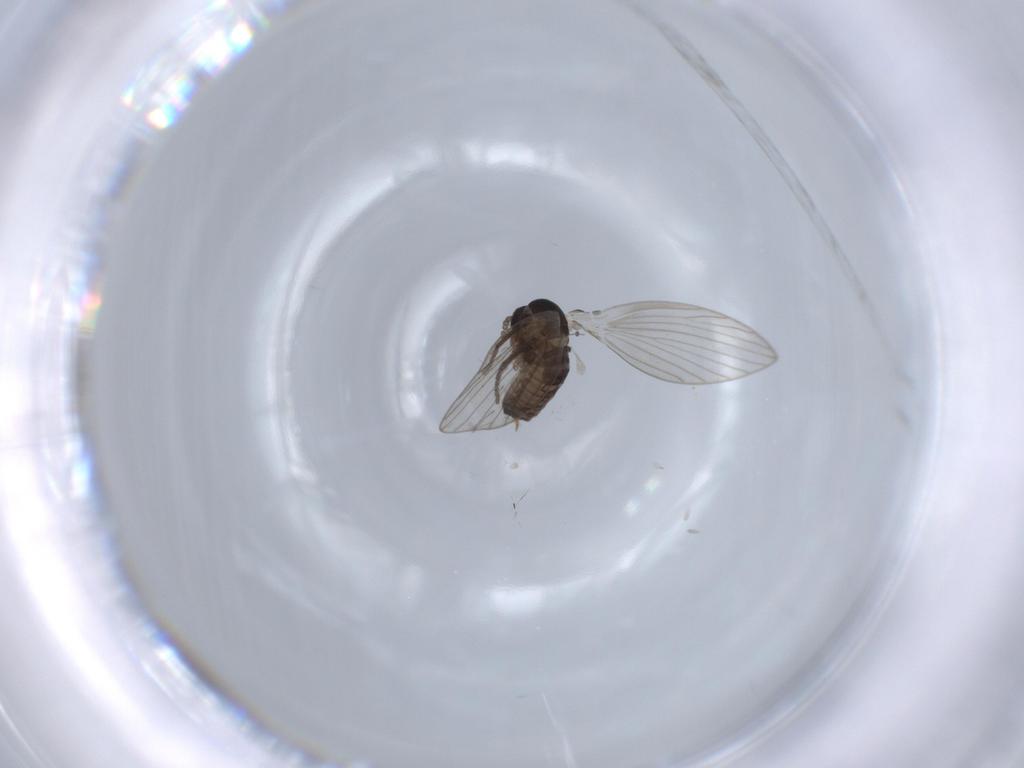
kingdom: Animalia
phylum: Arthropoda
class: Insecta
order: Diptera
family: Psychodidae
